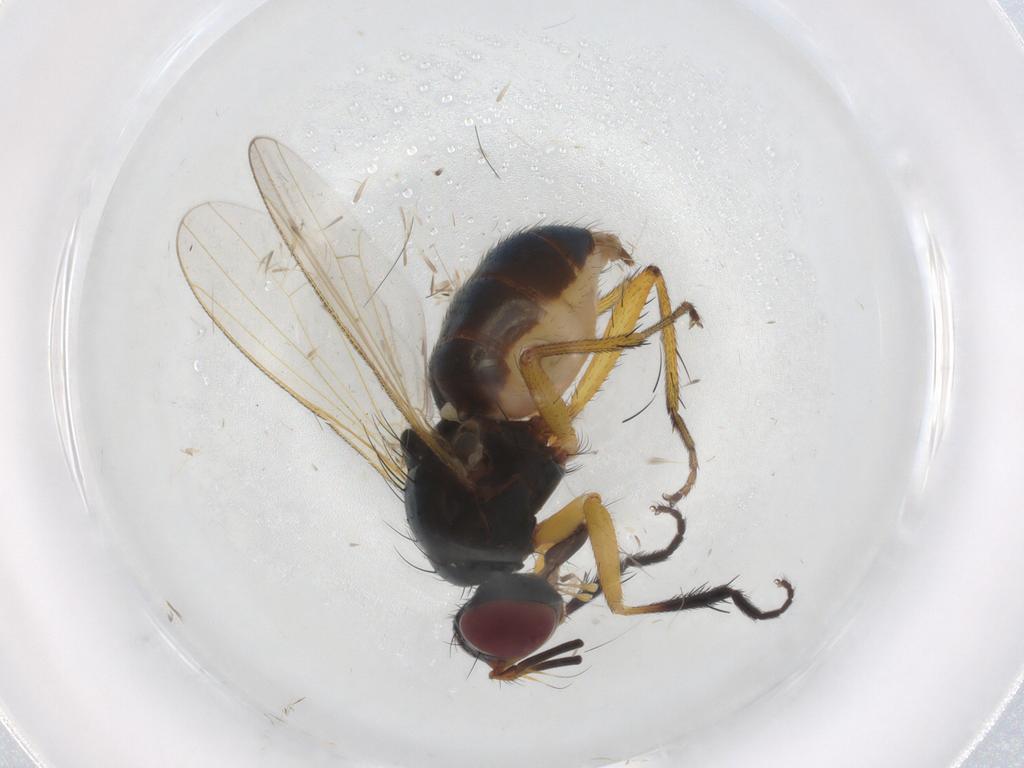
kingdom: Animalia
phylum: Arthropoda
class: Insecta
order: Diptera
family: Muscidae
